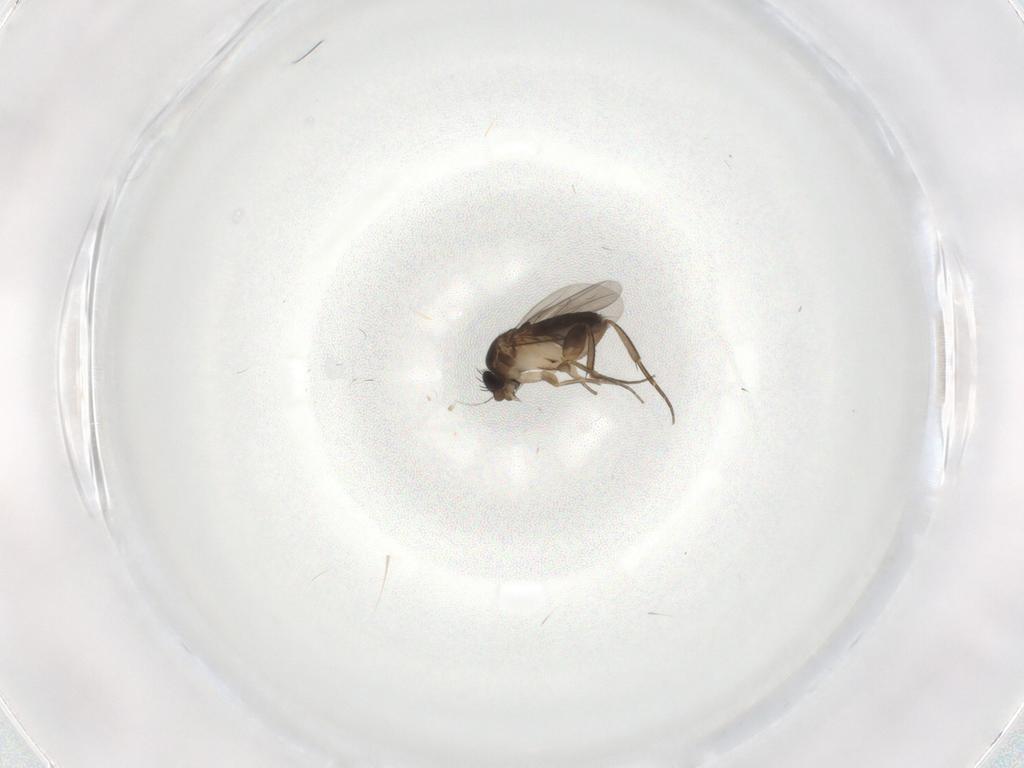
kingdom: Animalia
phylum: Arthropoda
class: Insecta
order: Diptera
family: Phoridae
